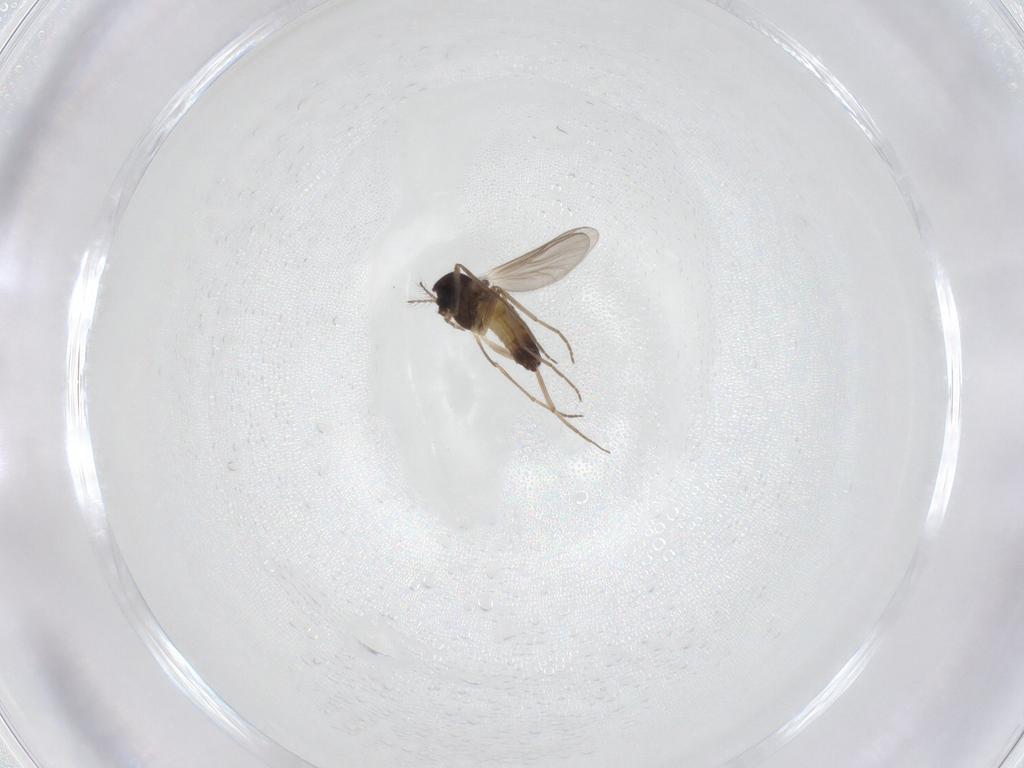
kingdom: Animalia
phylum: Arthropoda
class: Insecta
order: Diptera
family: Chironomidae
